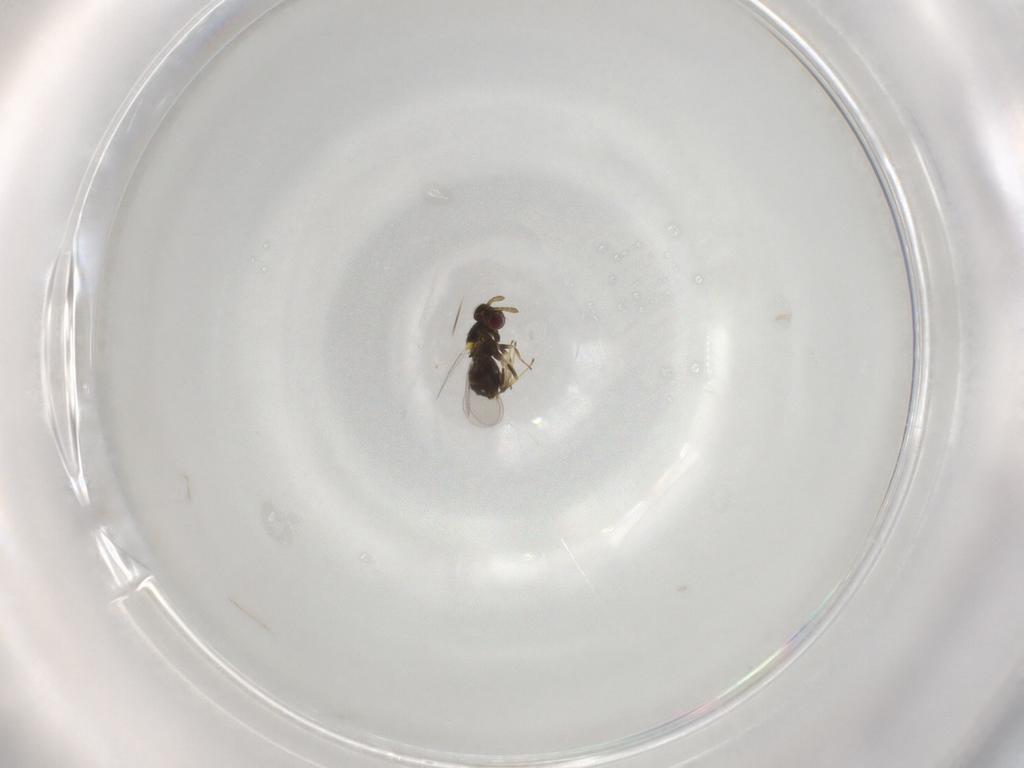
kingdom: Animalia
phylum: Arthropoda
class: Insecta
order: Hymenoptera
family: Aphelinidae
